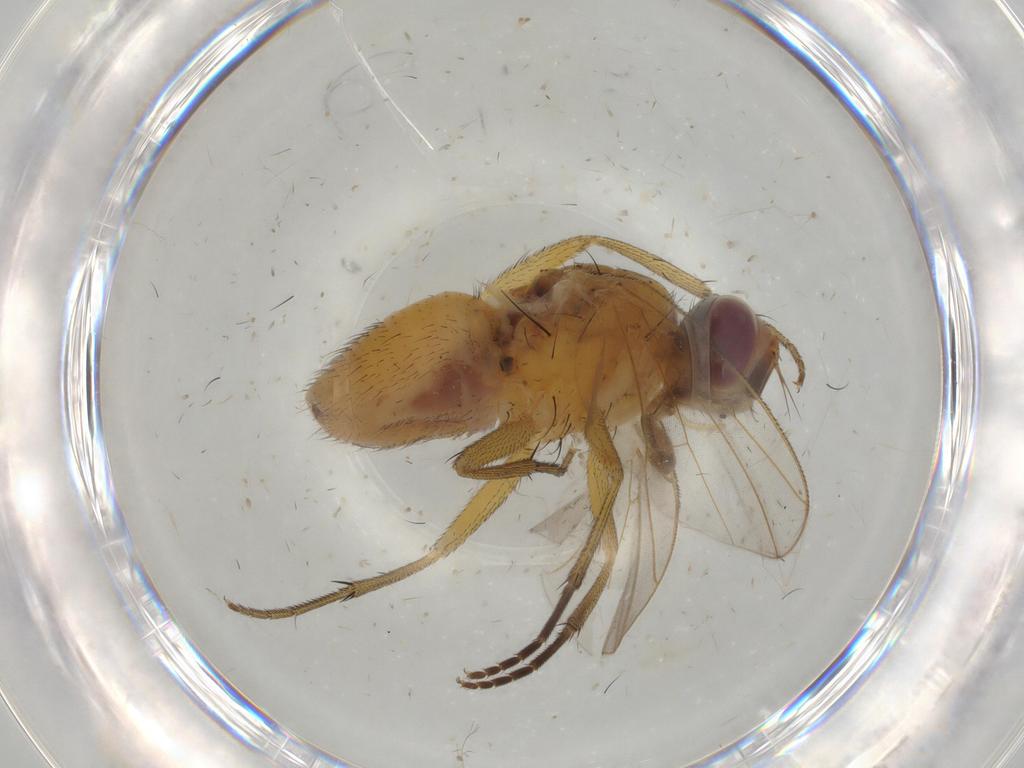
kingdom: Animalia
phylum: Arthropoda
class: Insecta
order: Diptera
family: Muscidae
